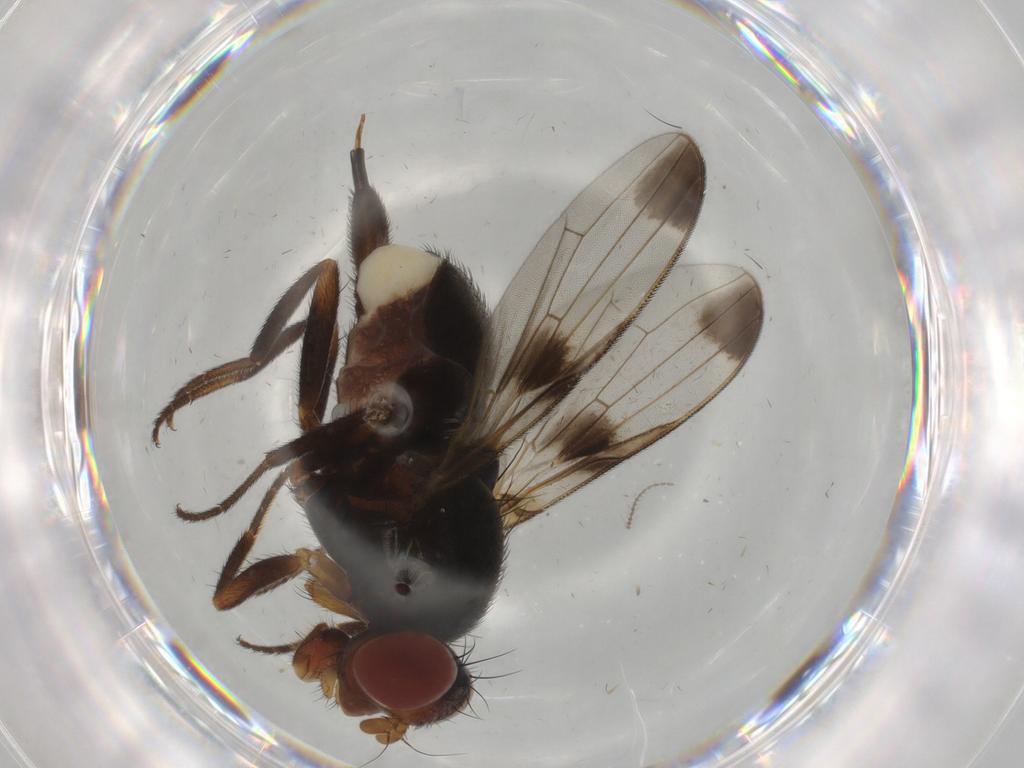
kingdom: Animalia
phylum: Arthropoda
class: Insecta
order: Diptera
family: Ulidiidae
